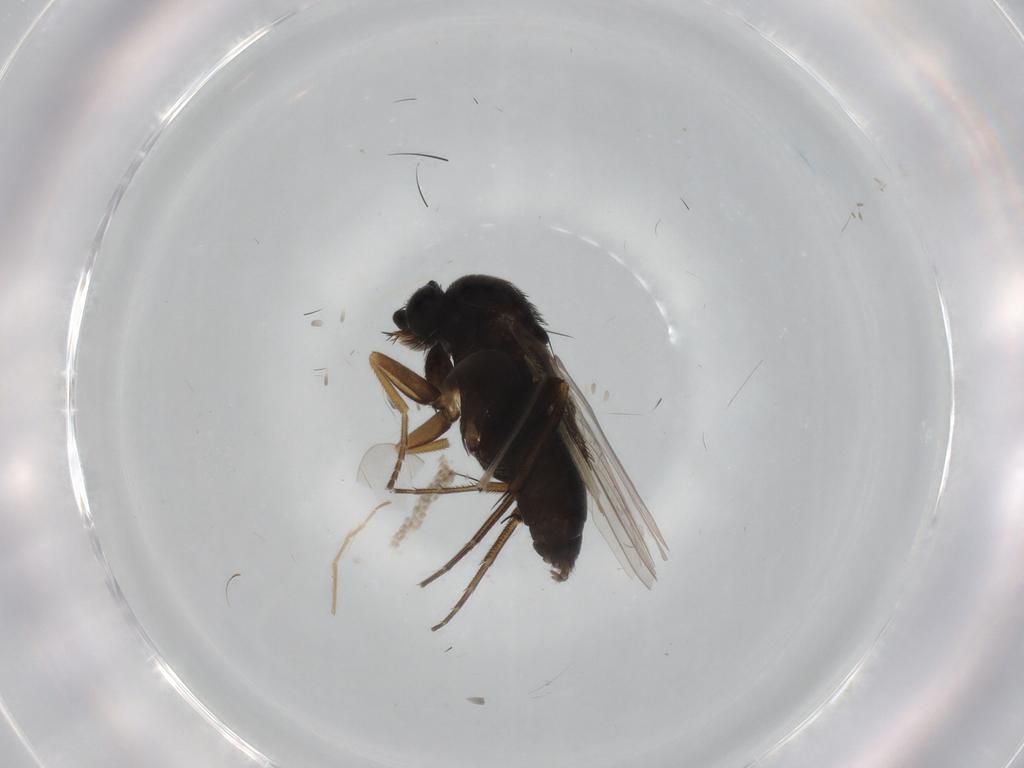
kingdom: Animalia
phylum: Arthropoda
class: Insecta
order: Diptera
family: Phoridae
